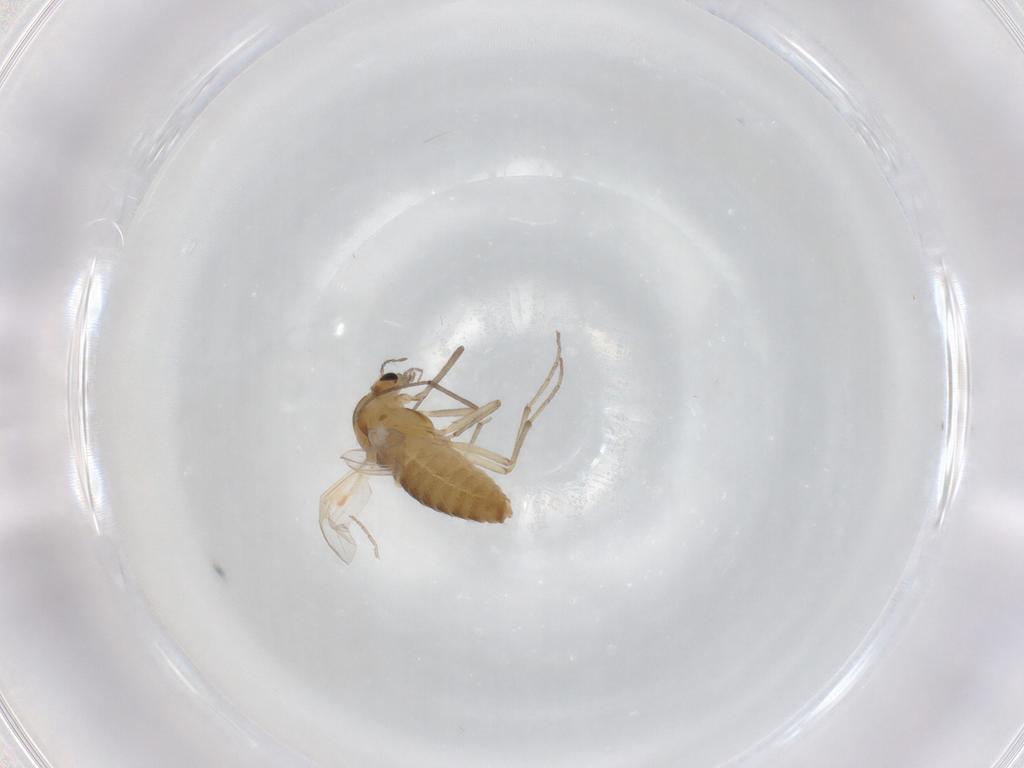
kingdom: Animalia
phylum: Arthropoda
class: Insecta
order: Diptera
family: Chironomidae
